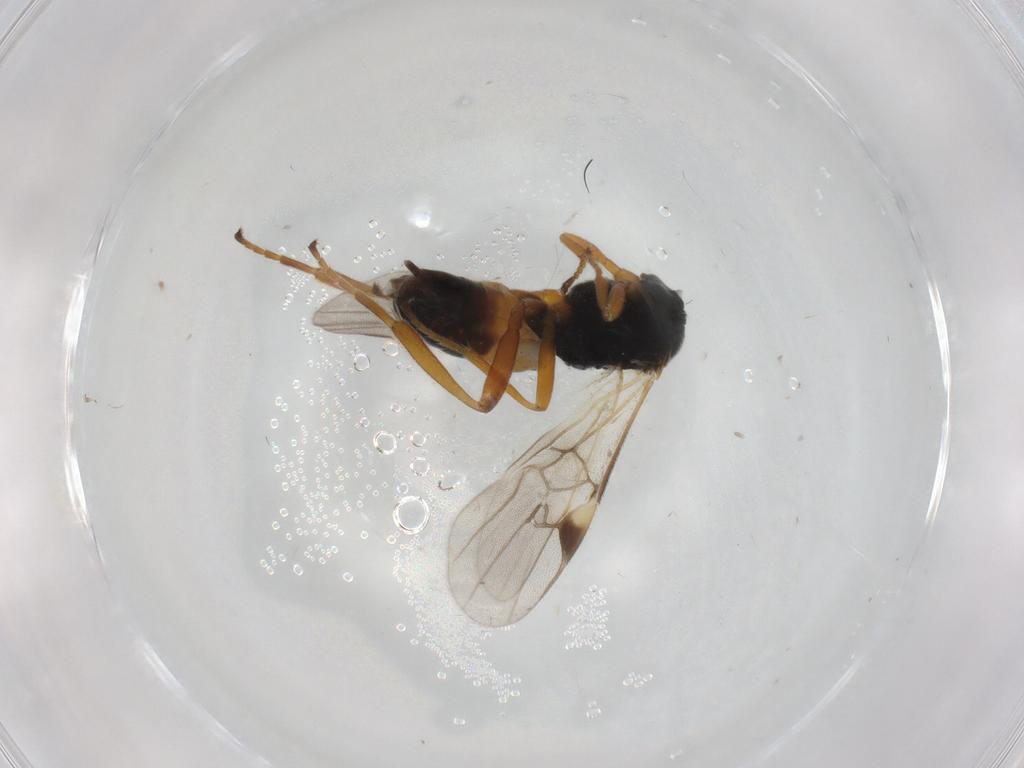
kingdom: Animalia
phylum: Arthropoda
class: Insecta
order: Hymenoptera
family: Braconidae
